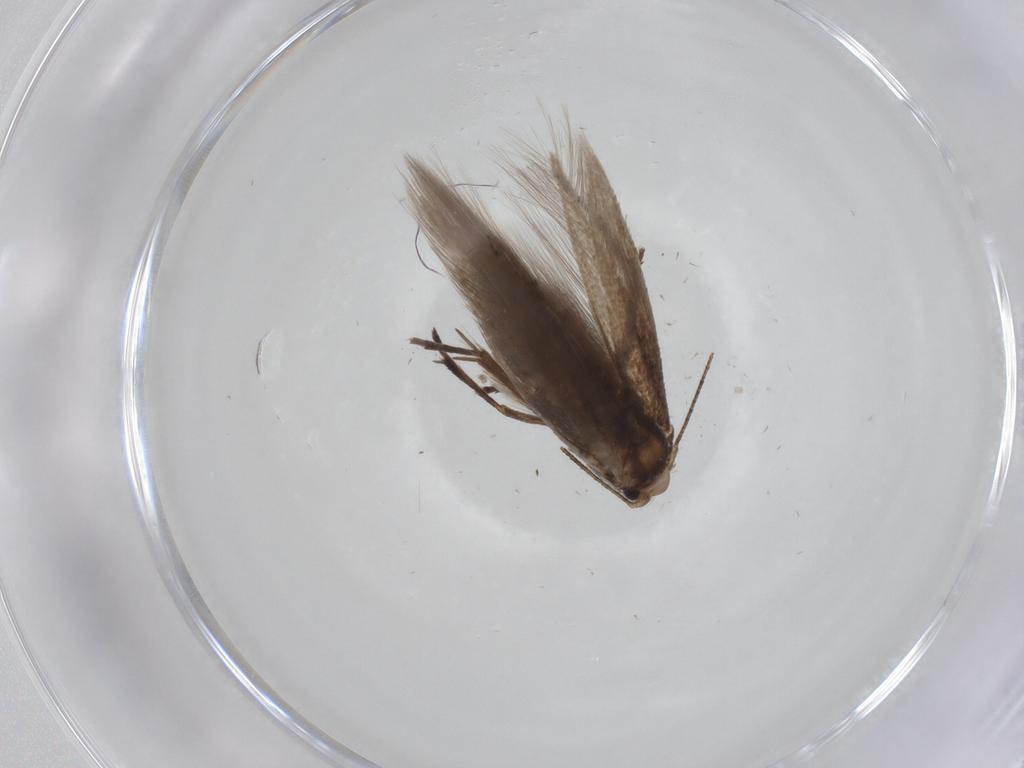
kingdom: Animalia
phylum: Arthropoda
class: Insecta
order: Lepidoptera
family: Bucculatricidae
